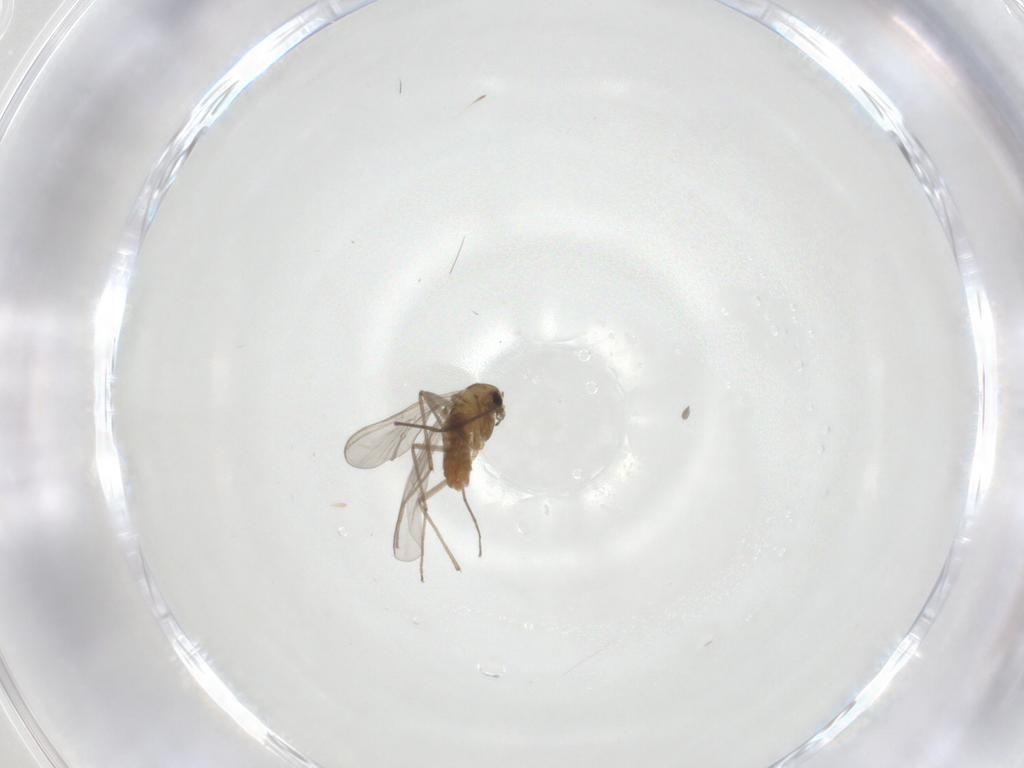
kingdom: Animalia
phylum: Arthropoda
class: Insecta
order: Diptera
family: Chironomidae
